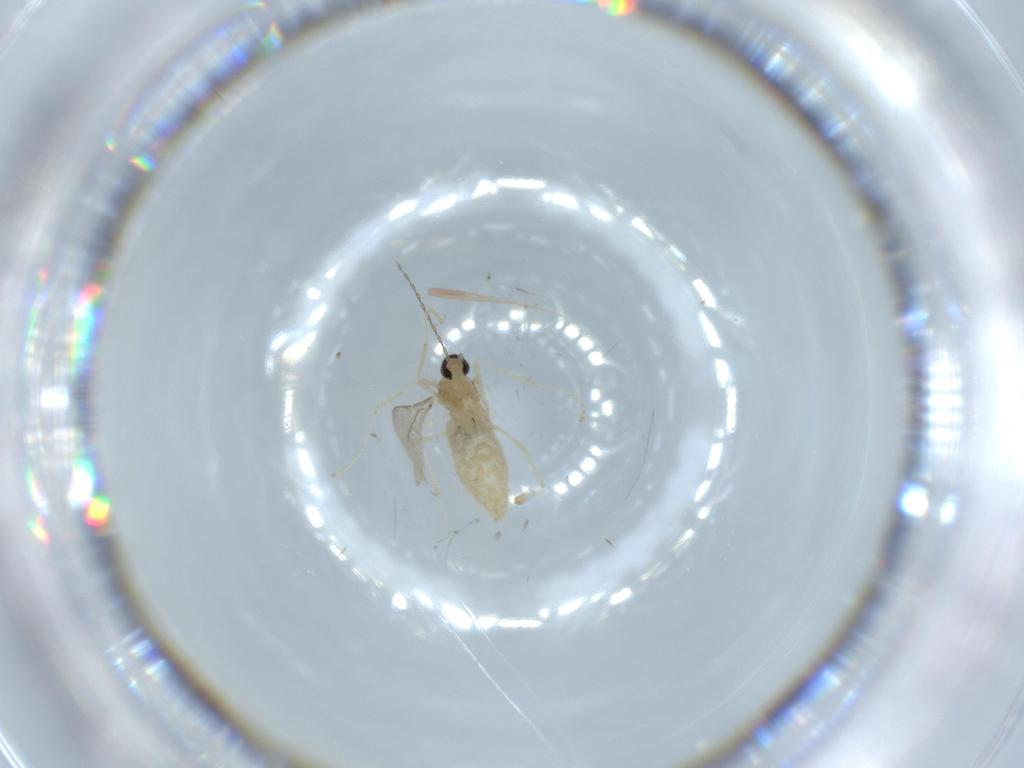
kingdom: Animalia
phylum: Arthropoda
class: Insecta
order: Diptera
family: Cecidomyiidae
